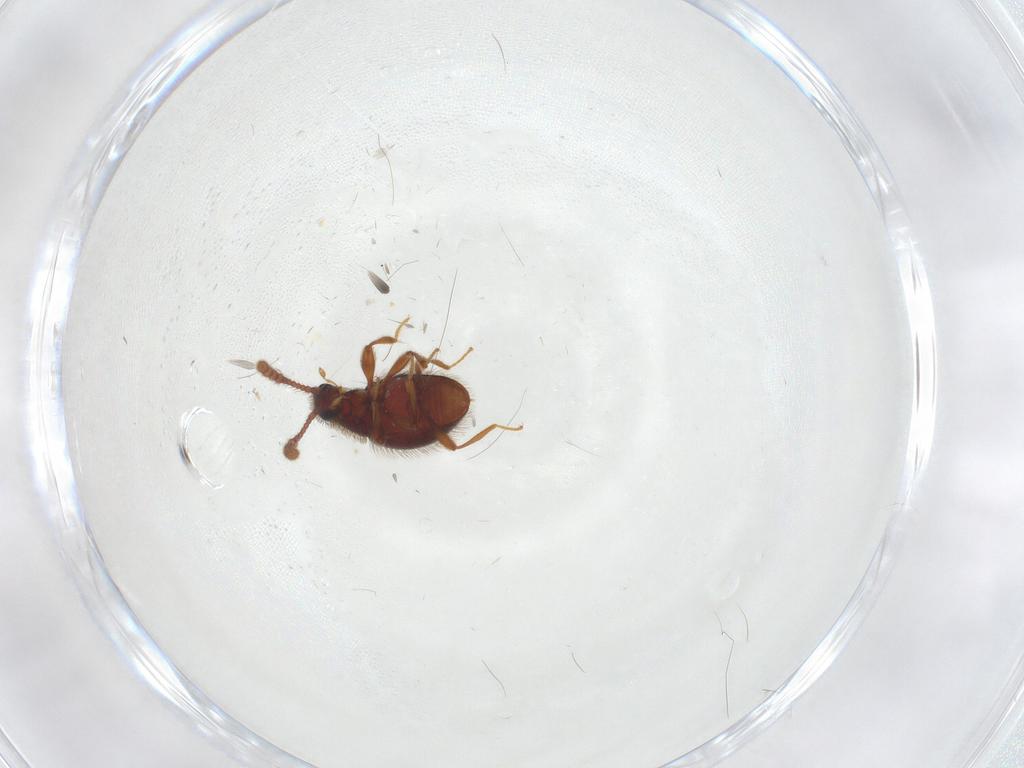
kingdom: Animalia
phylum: Arthropoda
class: Insecta
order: Coleoptera
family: Staphylinidae
